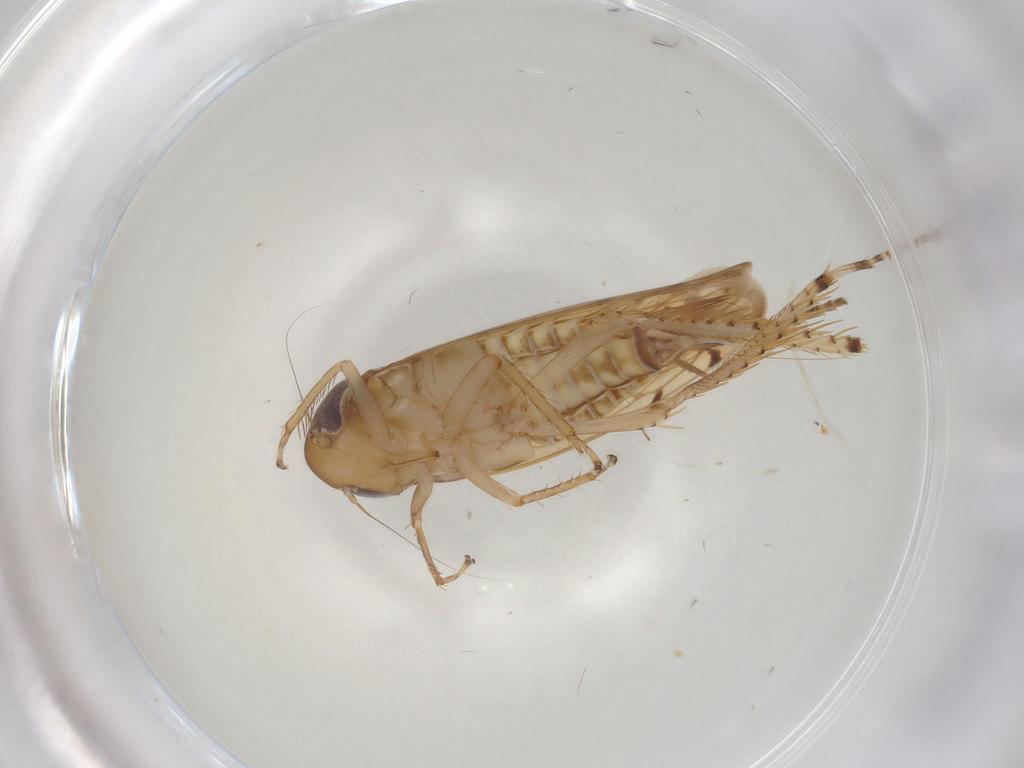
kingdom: Animalia
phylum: Arthropoda
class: Insecta
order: Hemiptera
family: Cicadellidae
